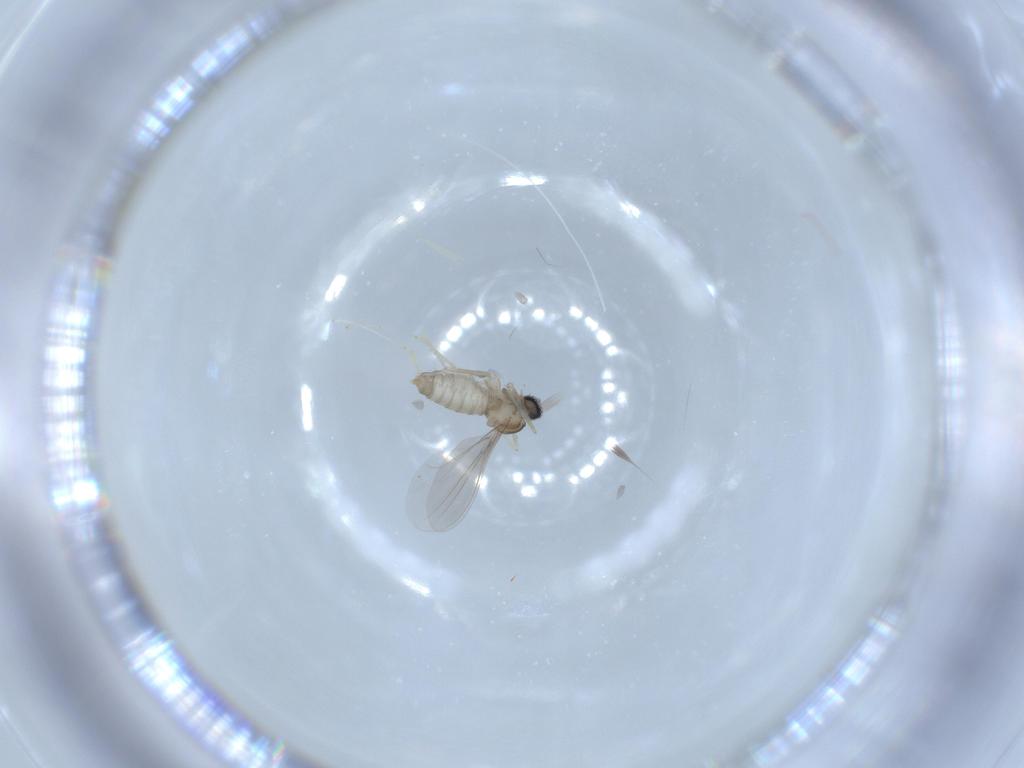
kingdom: Animalia
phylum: Arthropoda
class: Insecta
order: Diptera
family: Cecidomyiidae
